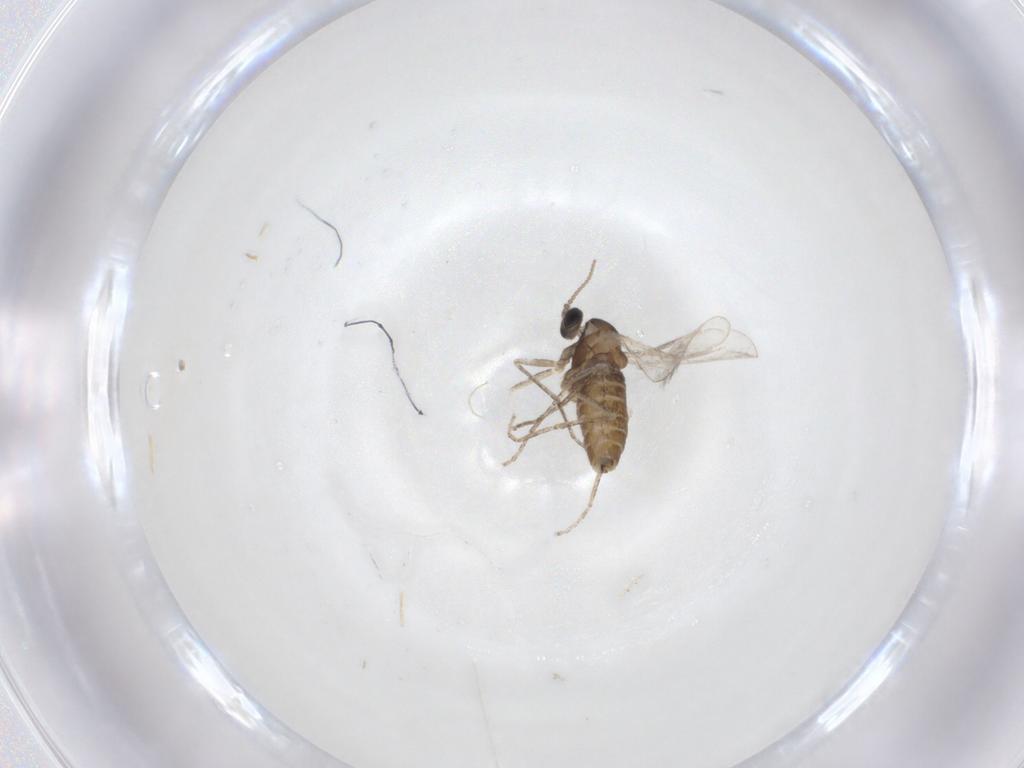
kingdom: Animalia
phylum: Arthropoda
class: Insecta
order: Diptera
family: Cecidomyiidae
